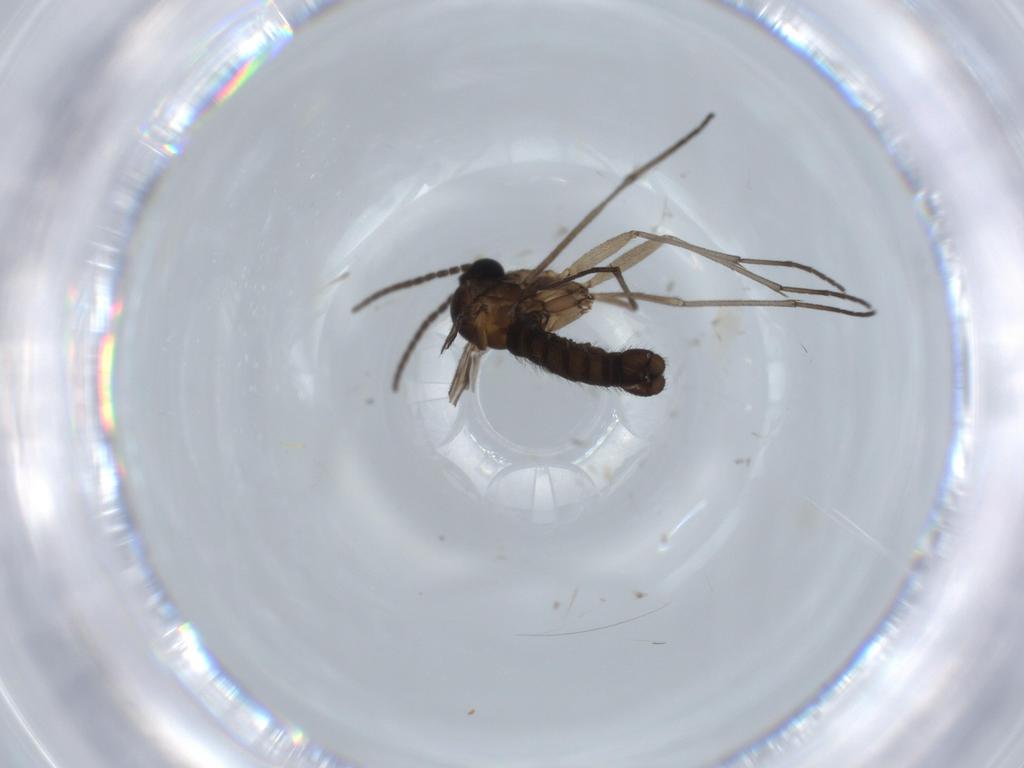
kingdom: Animalia
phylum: Arthropoda
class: Insecta
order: Diptera
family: Sciaridae
